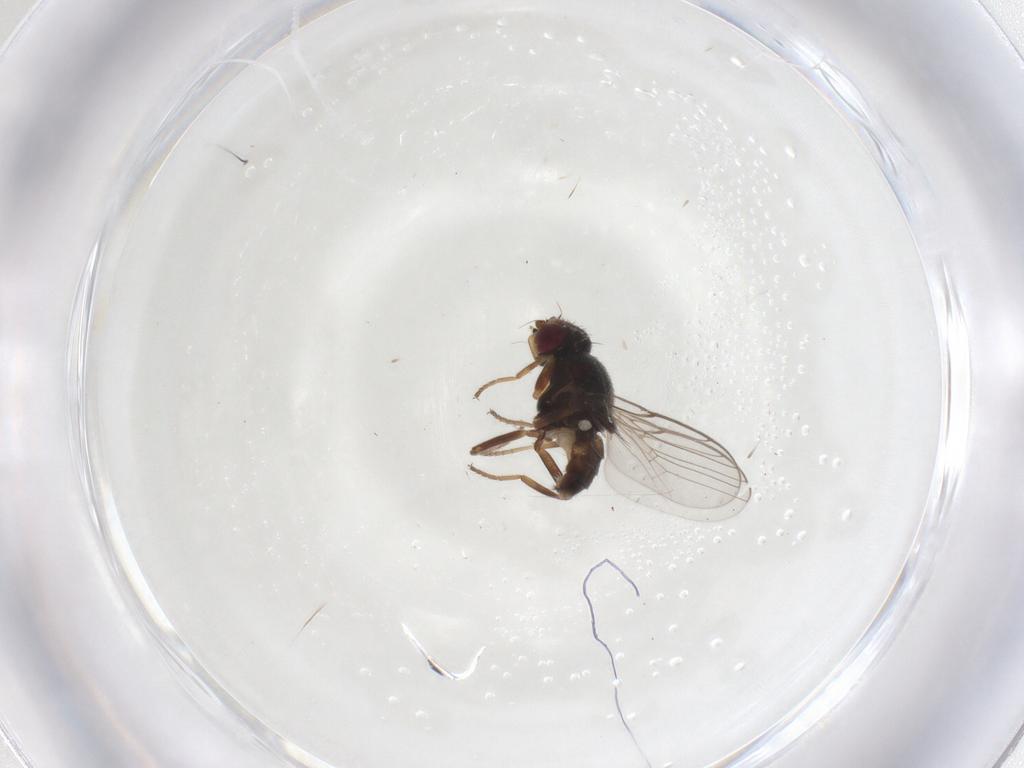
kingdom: Animalia
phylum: Arthropoda
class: Insecta
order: Diptera
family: Chloropidae
